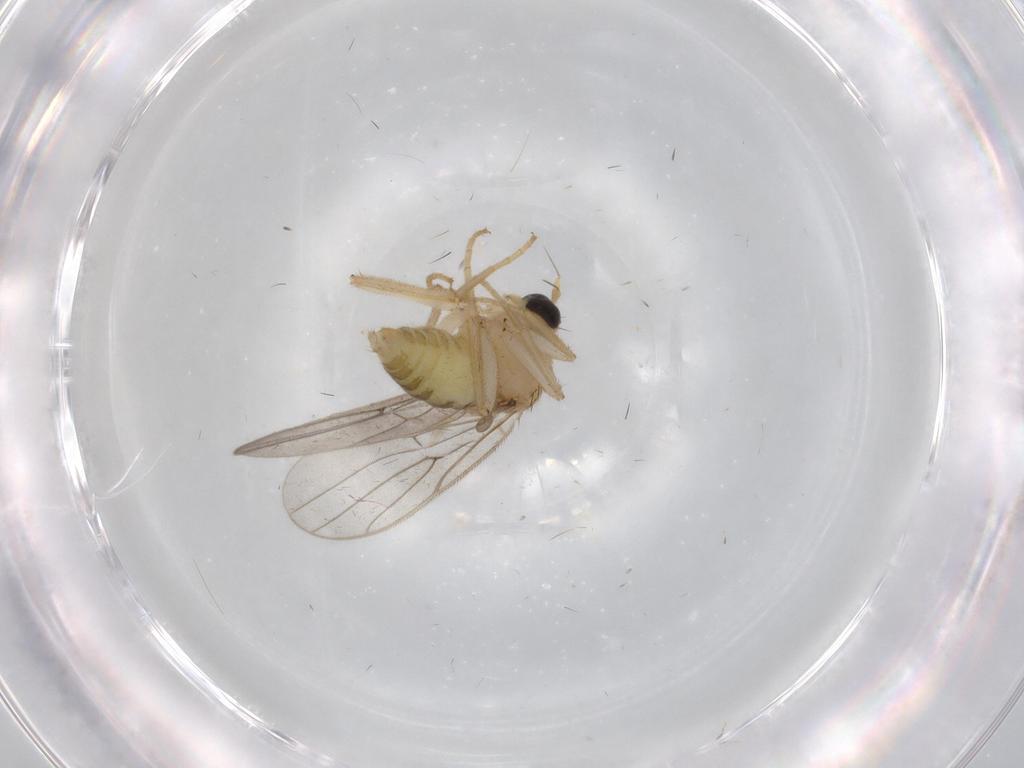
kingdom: Animalia
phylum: Arthropoda
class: Insecta
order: Diptera
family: Hybotidae
